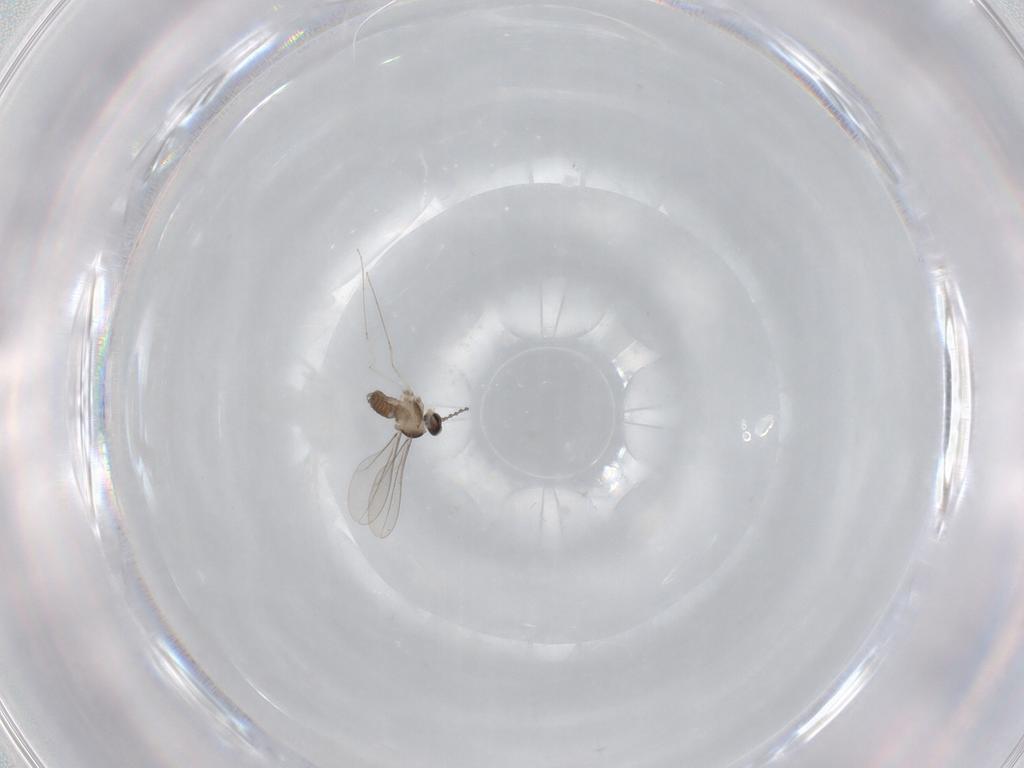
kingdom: Animalia
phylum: Arthropoda
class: Insecta
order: Diptera
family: Cecidomyiidae
